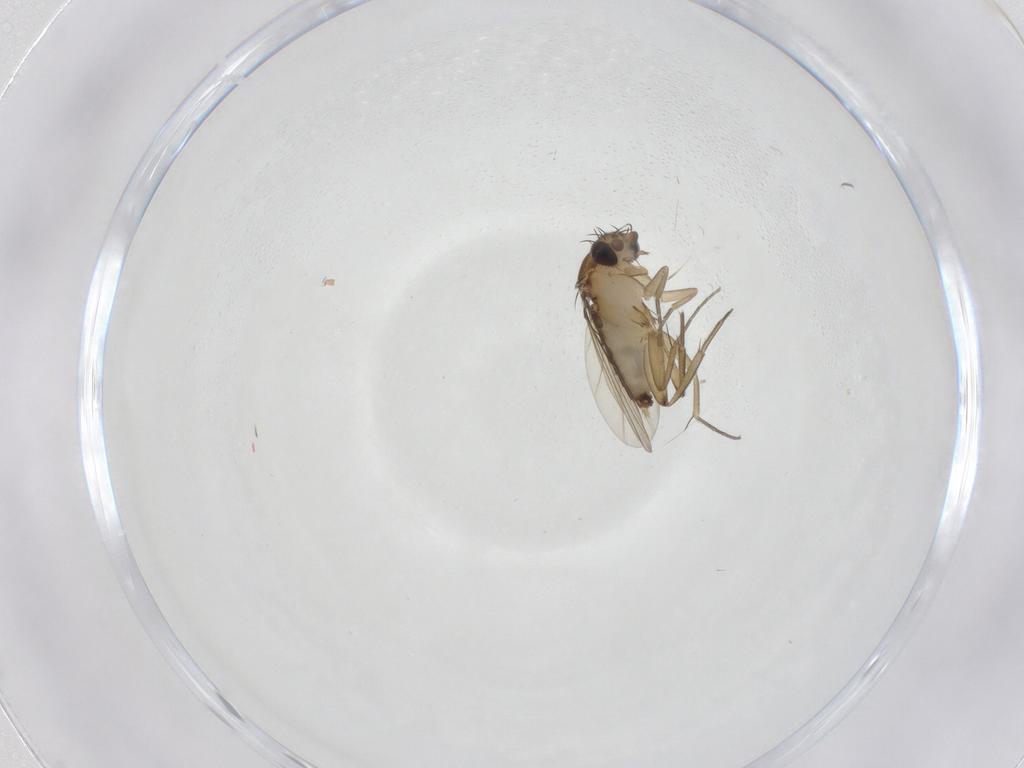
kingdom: Animalia
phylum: Arthropoda
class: Insecta
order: Diptera
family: Phoridae
